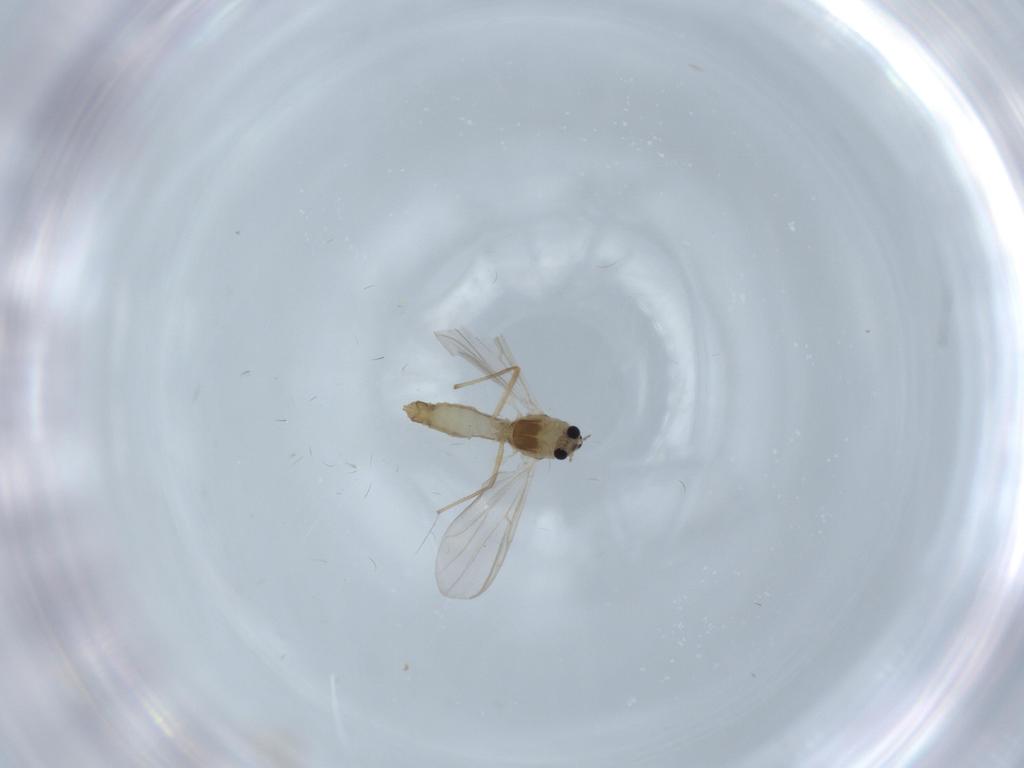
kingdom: Animalia
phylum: Arthropoda
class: Insecta
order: Diptera
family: Chironomidae
